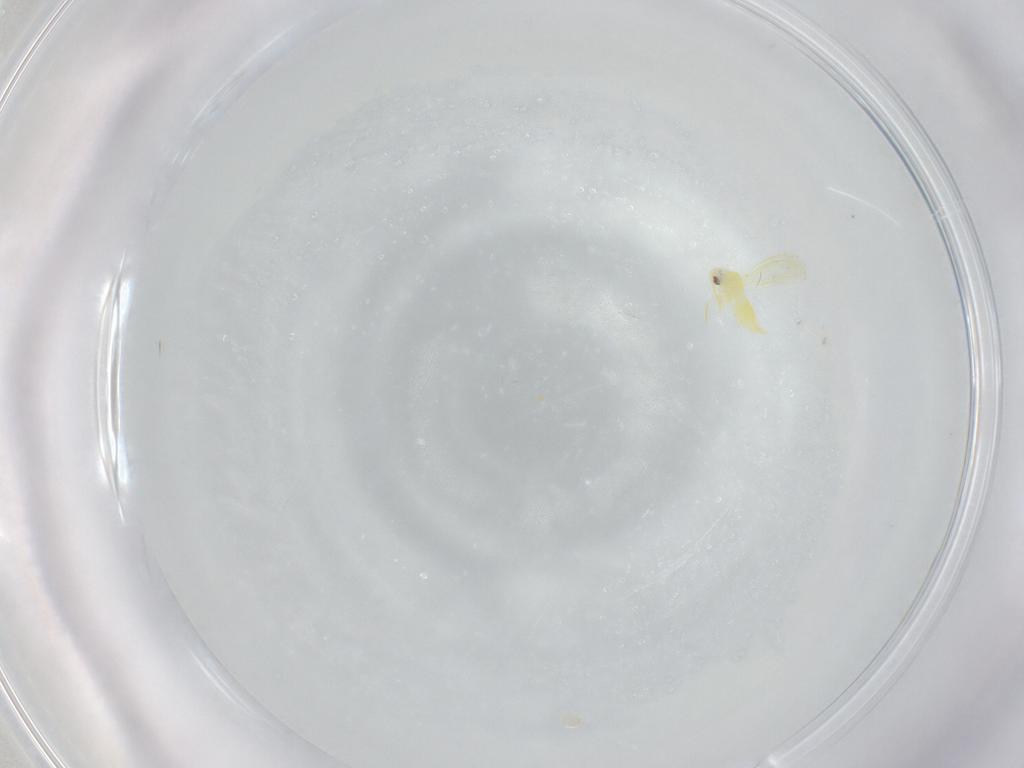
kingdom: Animalia
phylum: Arthropoda
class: Insecta
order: Hemiptera
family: Aleyrodidae
